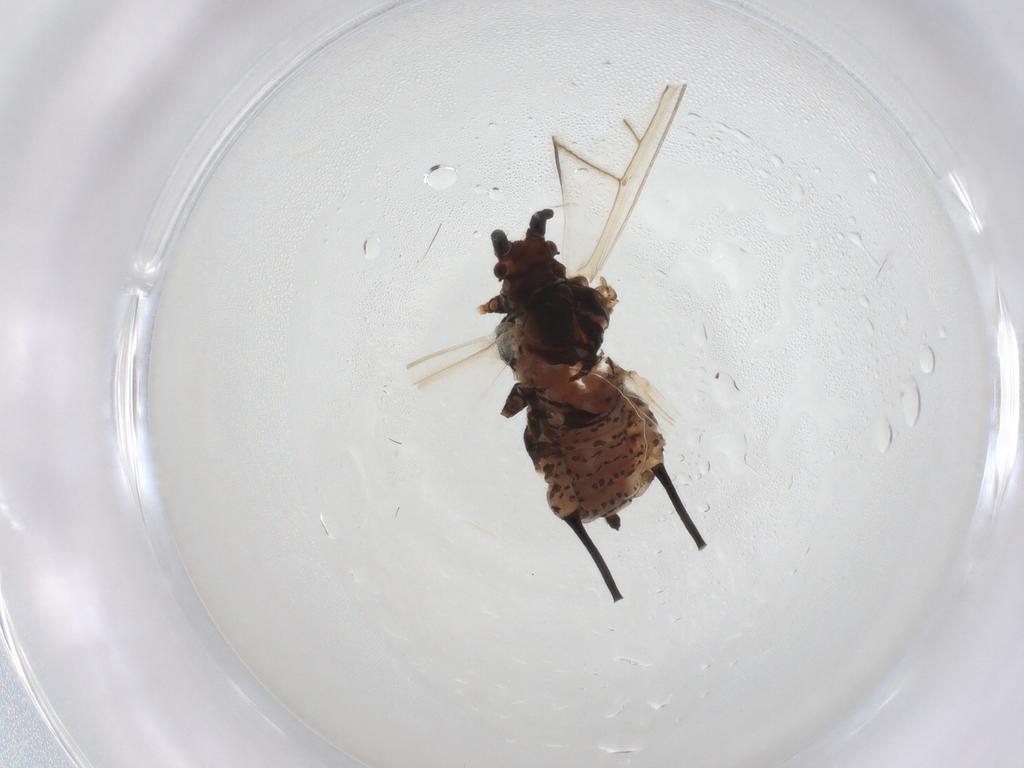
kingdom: Animalia
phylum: Arthropoda
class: Insecta
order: Hemiptera
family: Aphididae
